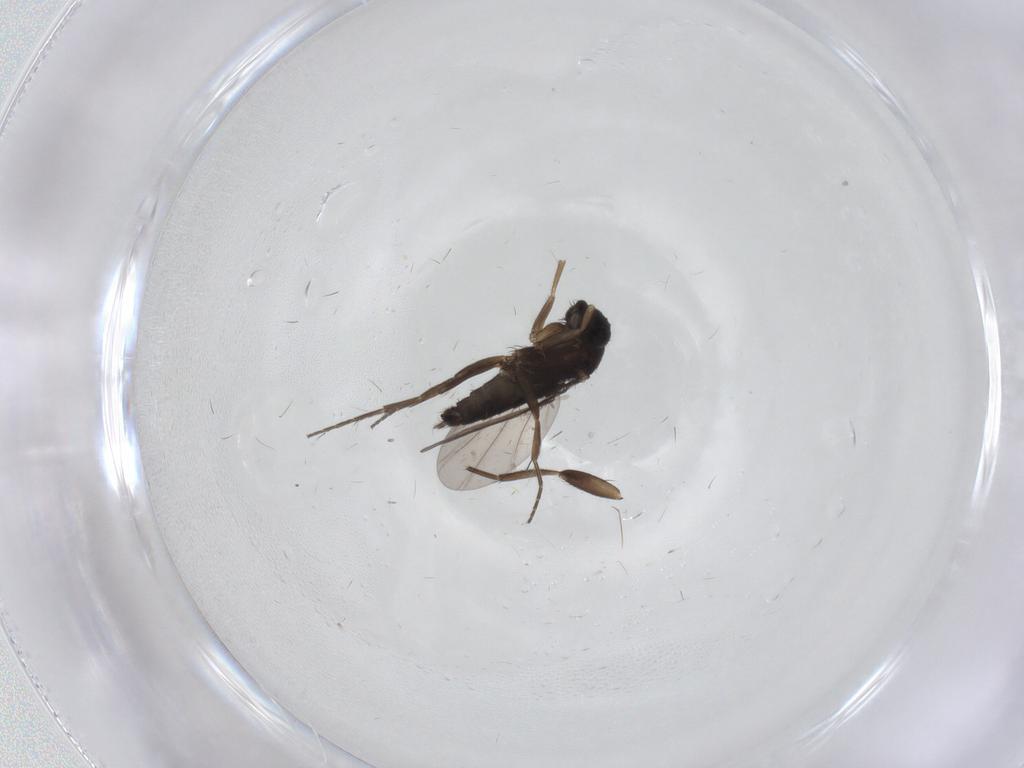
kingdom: Animalia
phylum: Arthropoda
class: Insecta
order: Diptera
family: Phoridae
